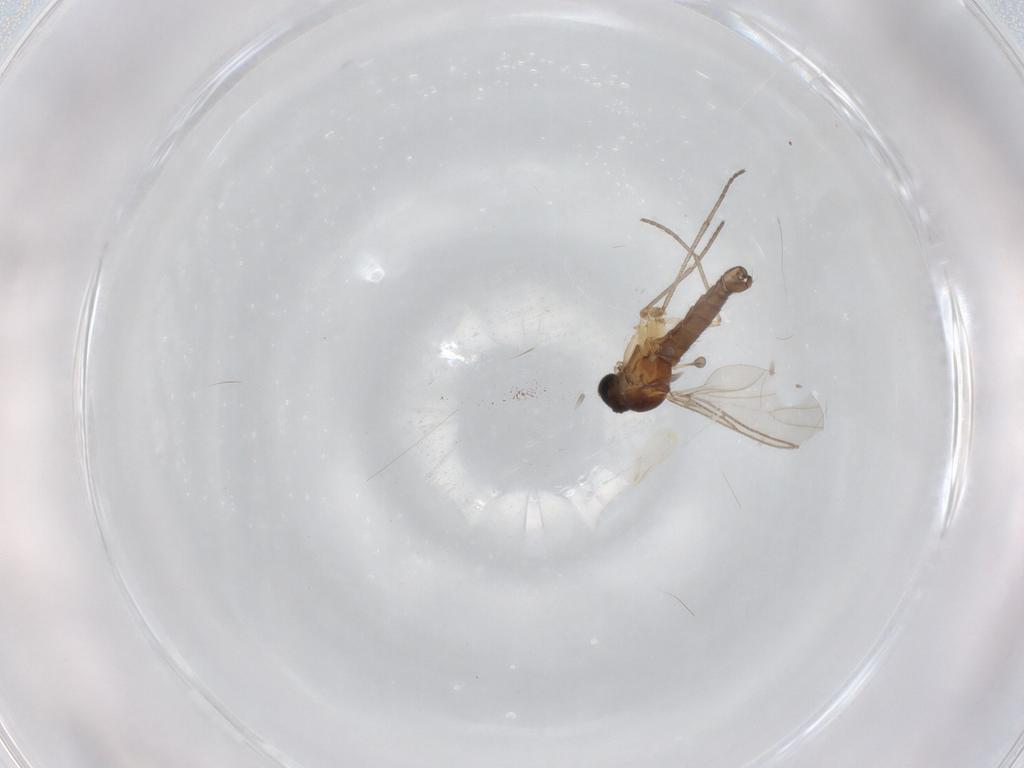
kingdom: Animalia
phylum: Arthropoda
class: Insecta
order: Diptera
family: Sciaridae
